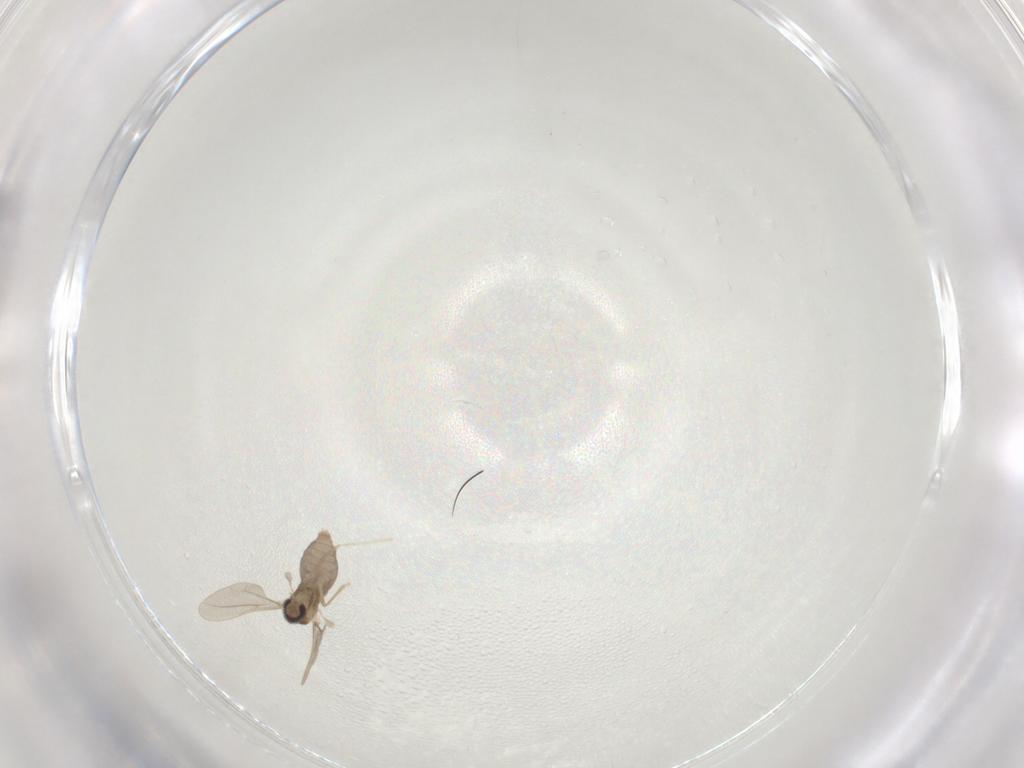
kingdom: Animalia
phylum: Arthropoda
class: Insecta
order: Diptera
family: Cecidomyiidae
